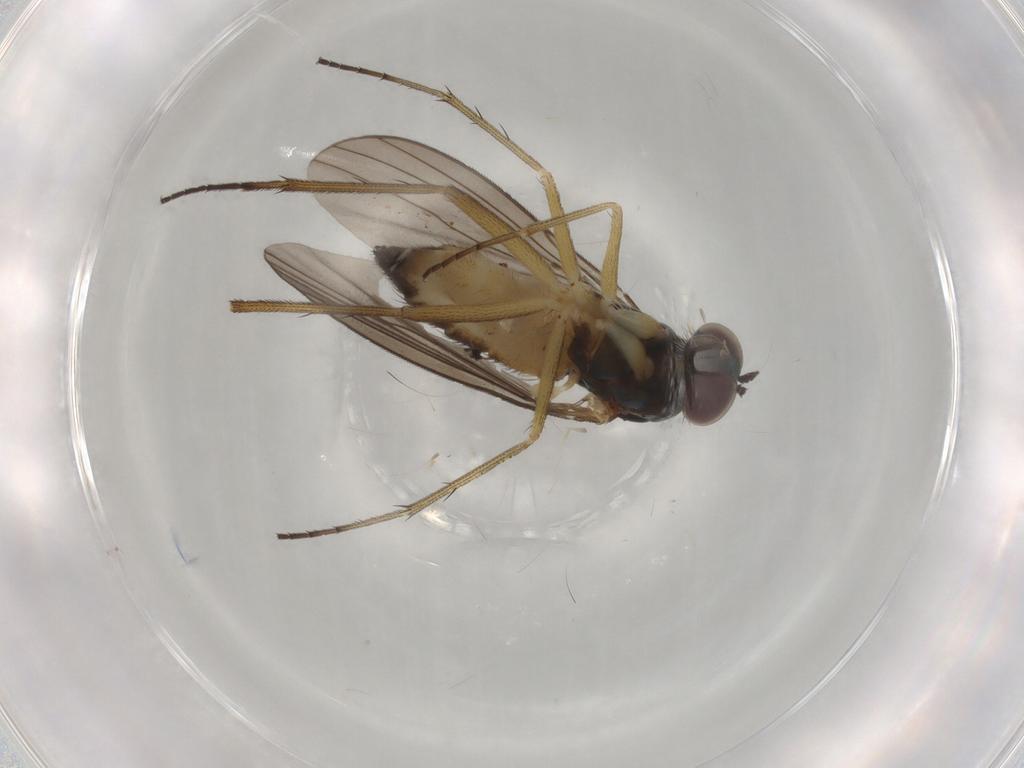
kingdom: Animalia
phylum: Arthropoda
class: Insecta
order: Diptera
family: Dolichopodidae
